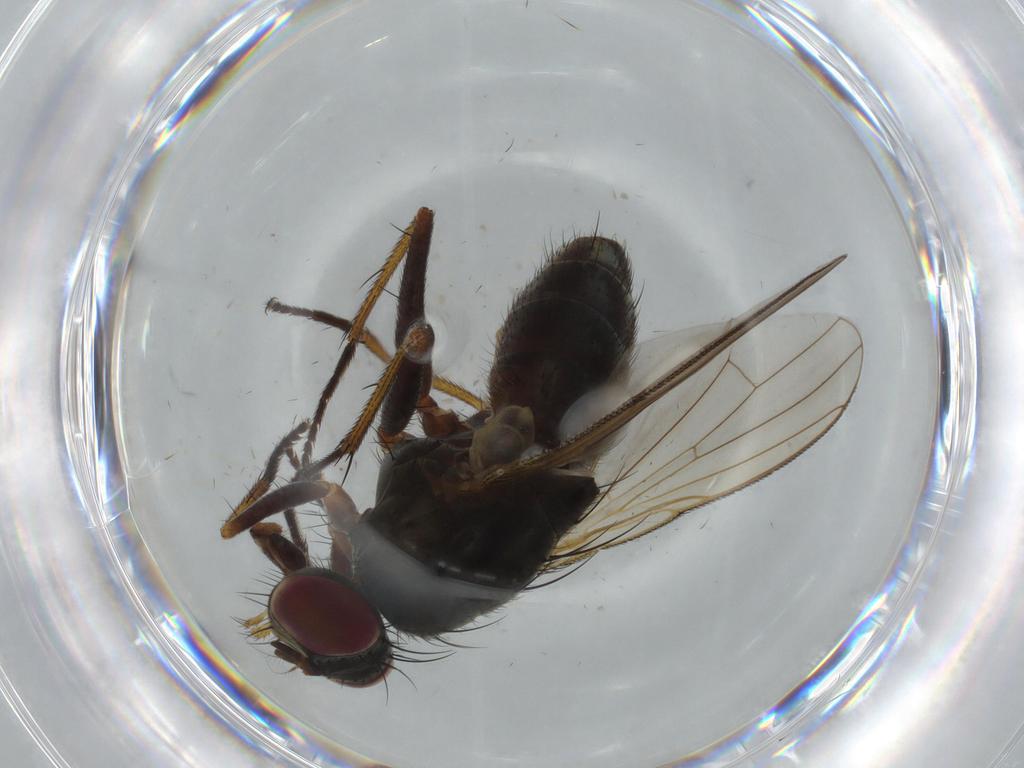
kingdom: Animalia
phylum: Arthropoda
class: Insecta
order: Diptera
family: Muscidae
